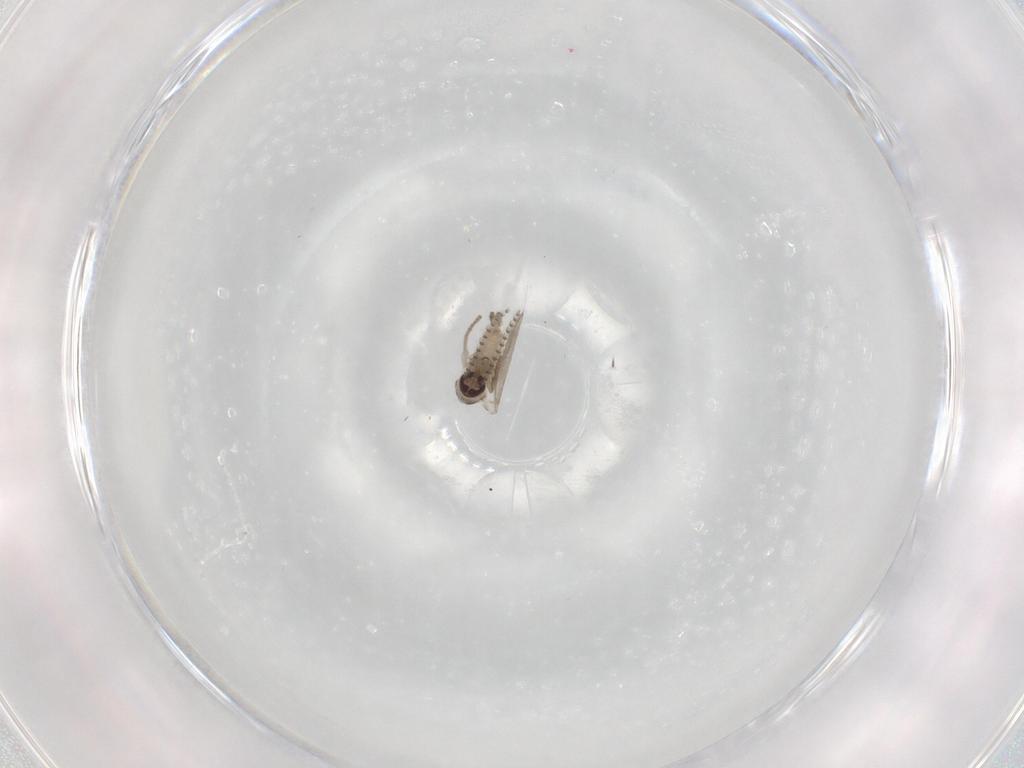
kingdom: Animalia
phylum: Arthropoda
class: Insecta
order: Diptera
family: Psychodidae
